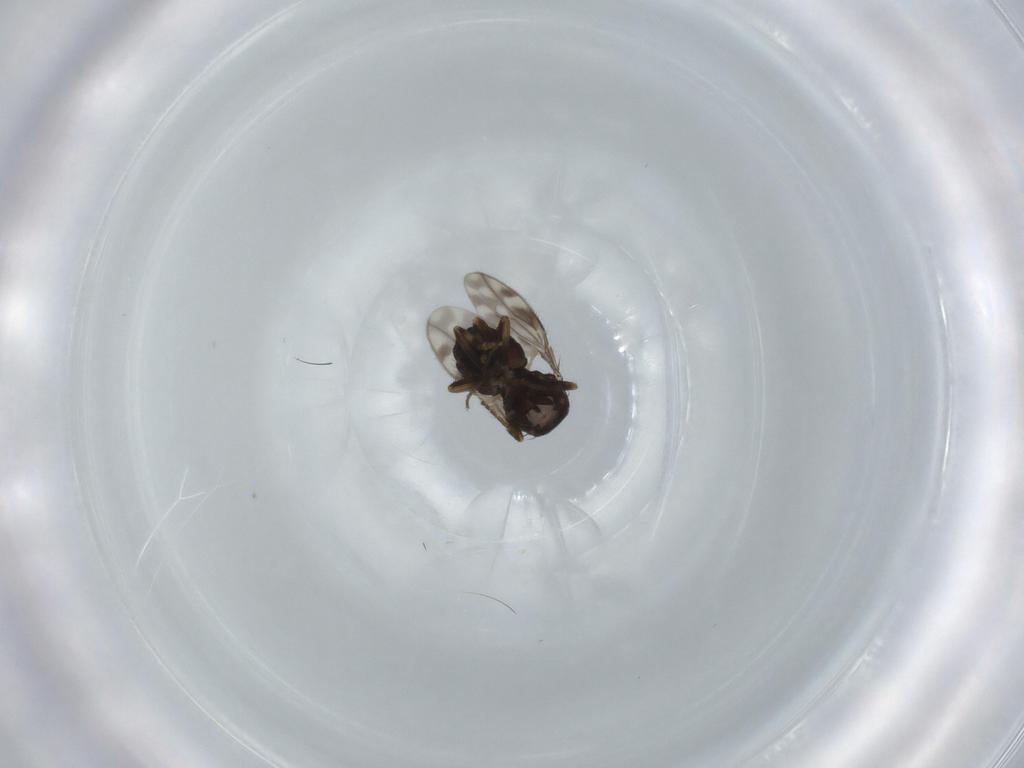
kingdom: Animalia
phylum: Arthropoda
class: Insecta
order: Diptera
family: Sphaeroceridae
